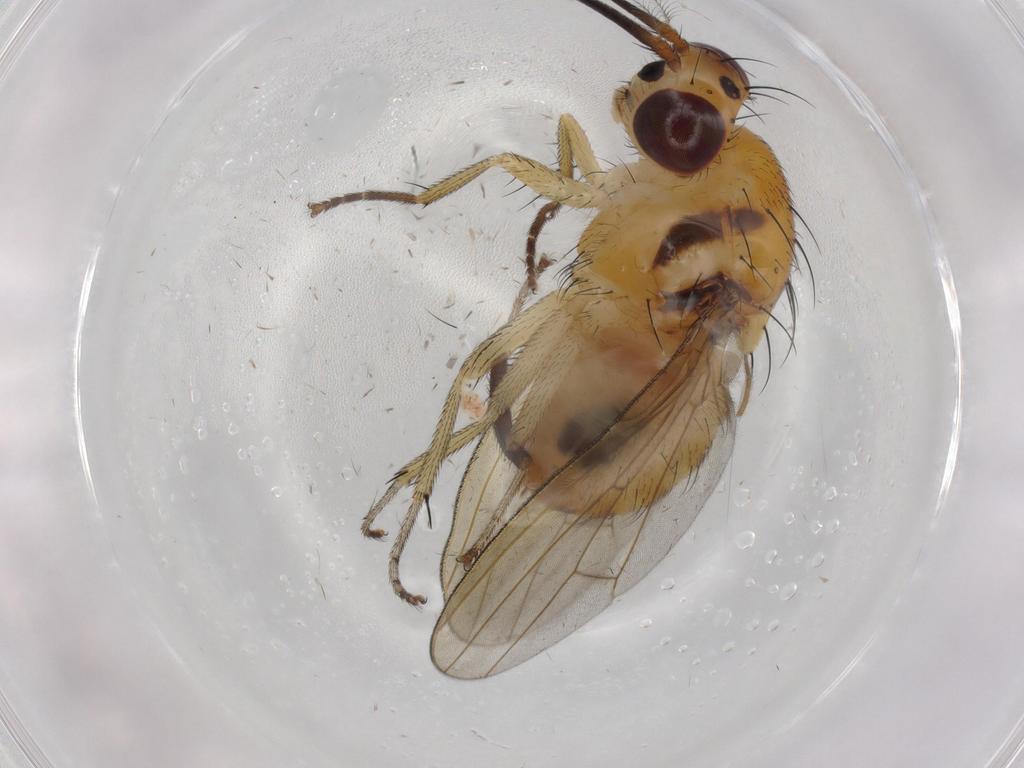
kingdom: Animalia
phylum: Arthropoda
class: Insecta
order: Diptera
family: Lauxaniidae
